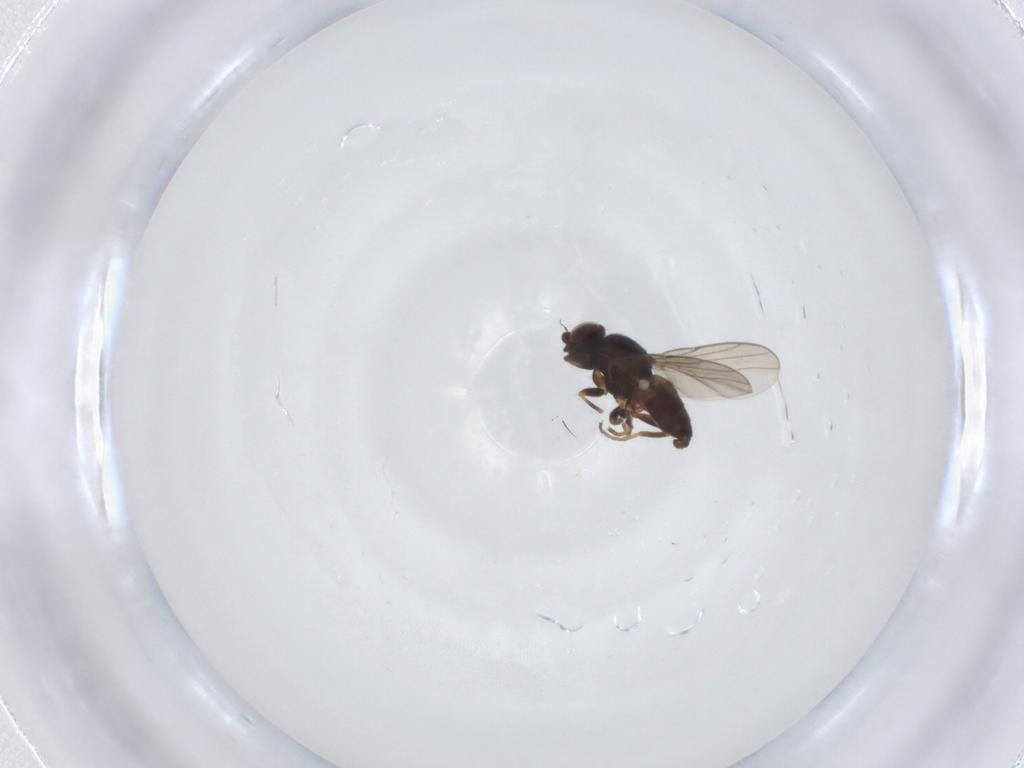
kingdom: Animalia
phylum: Arthropoda
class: Insecta
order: Diptera
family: Chloropidae
